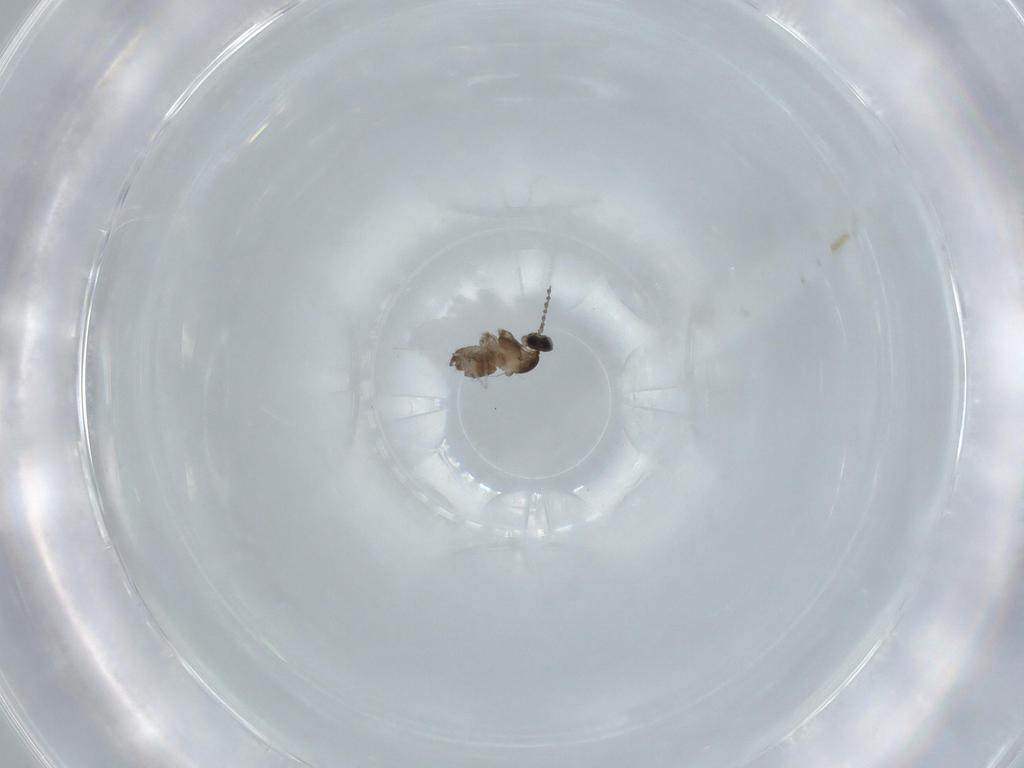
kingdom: Animalia
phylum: Arthropoda
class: Insecta
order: Diptera
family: Cecidomyiidae
